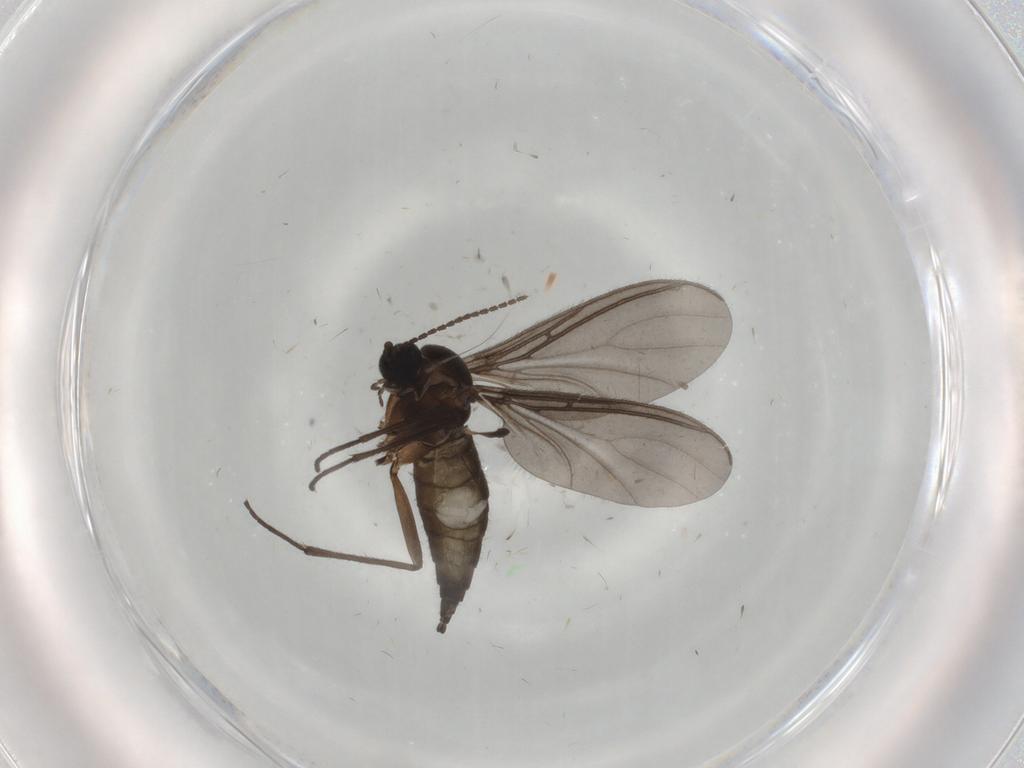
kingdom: Animalia
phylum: Arthropoda
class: Insecta
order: Diptera
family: Sciaridae
